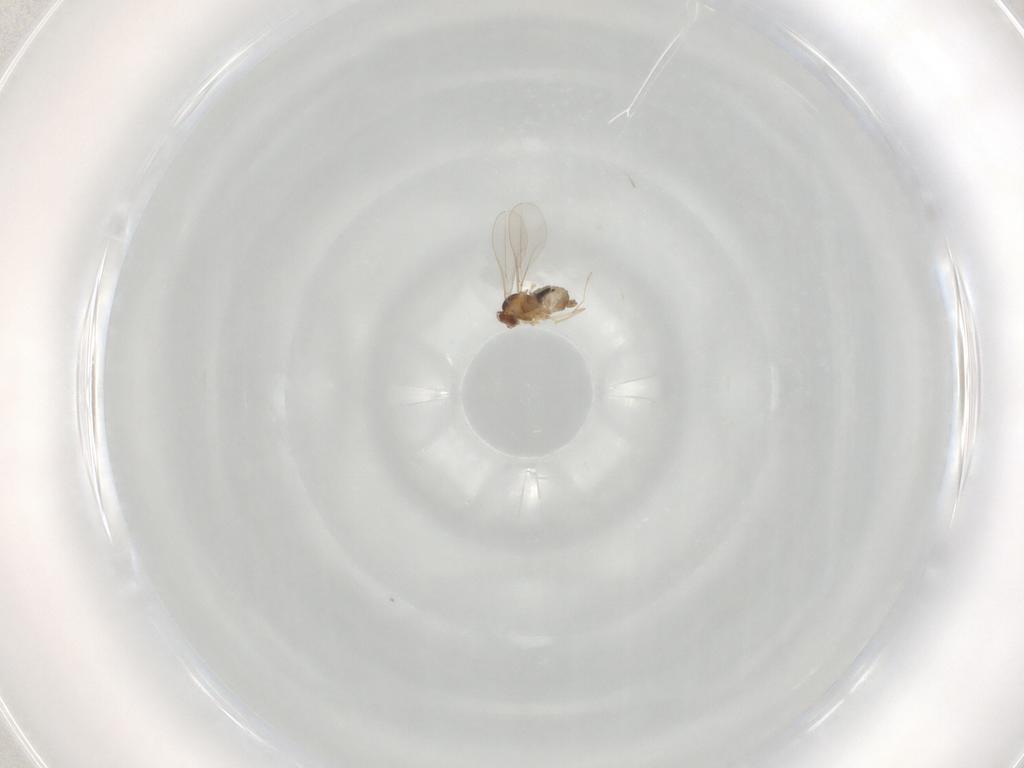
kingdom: Animalia
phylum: Arthropoda
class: Insecta
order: Diptera
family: Cecidomyiidae
